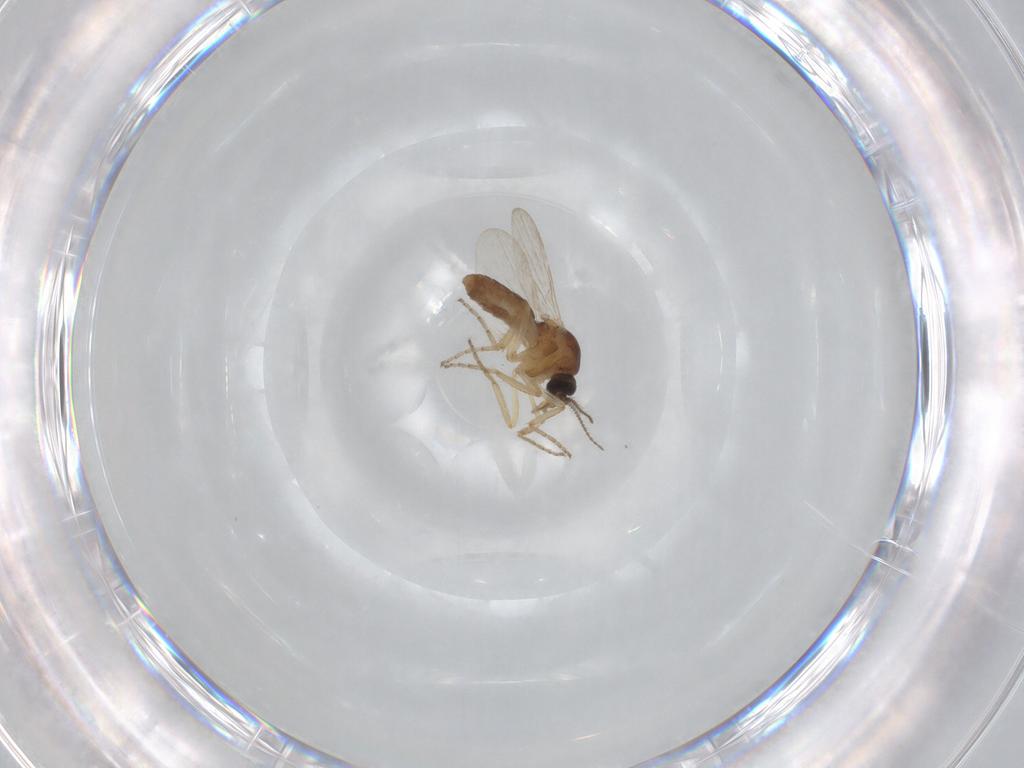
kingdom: Animalia
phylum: Arthropoda
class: Insecta
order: Diptera
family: Ceratopogonidae
